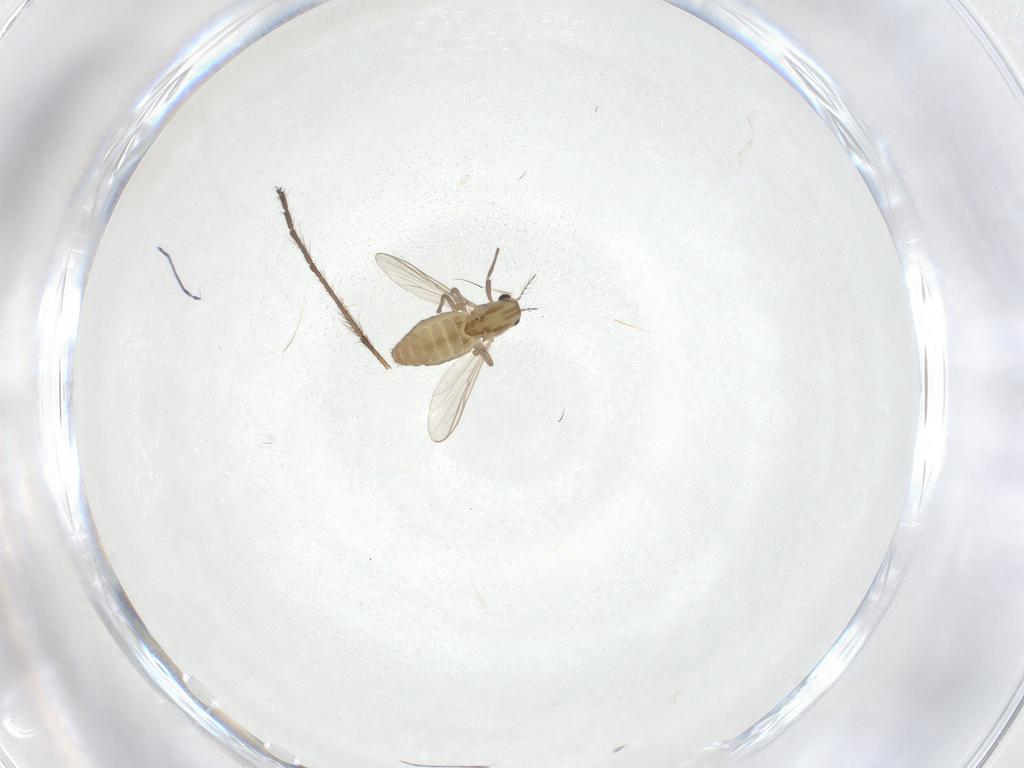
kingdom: Animalia
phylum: Arthropoda
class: Insecta
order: Diptera
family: Chironomidae
